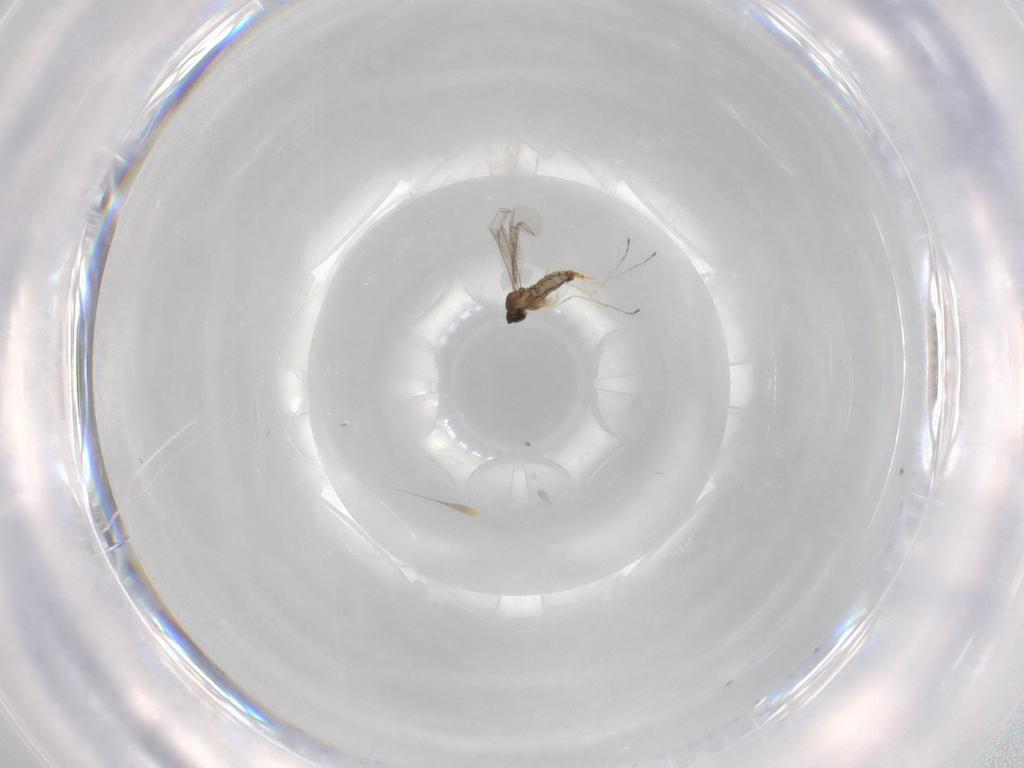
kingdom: Animalia
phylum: Arthropoda
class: Insecta
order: Diptera
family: Cecidomyiidae
